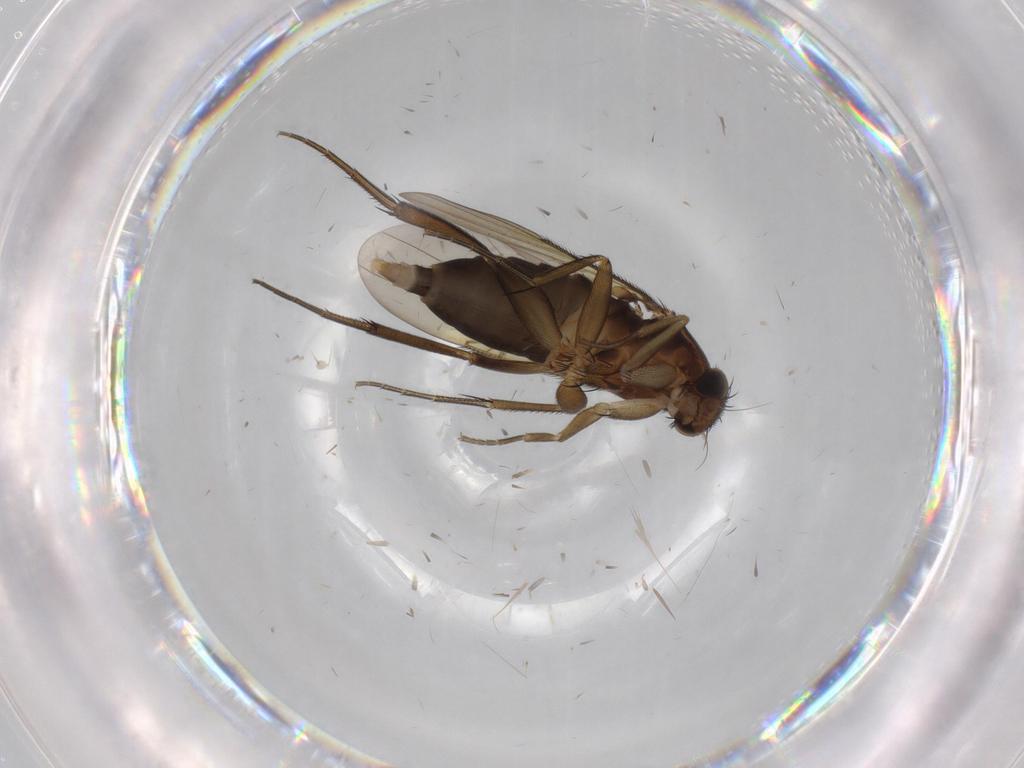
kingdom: Animalia
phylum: Arthropoda
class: Insecta
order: Diptera
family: Phoridae
